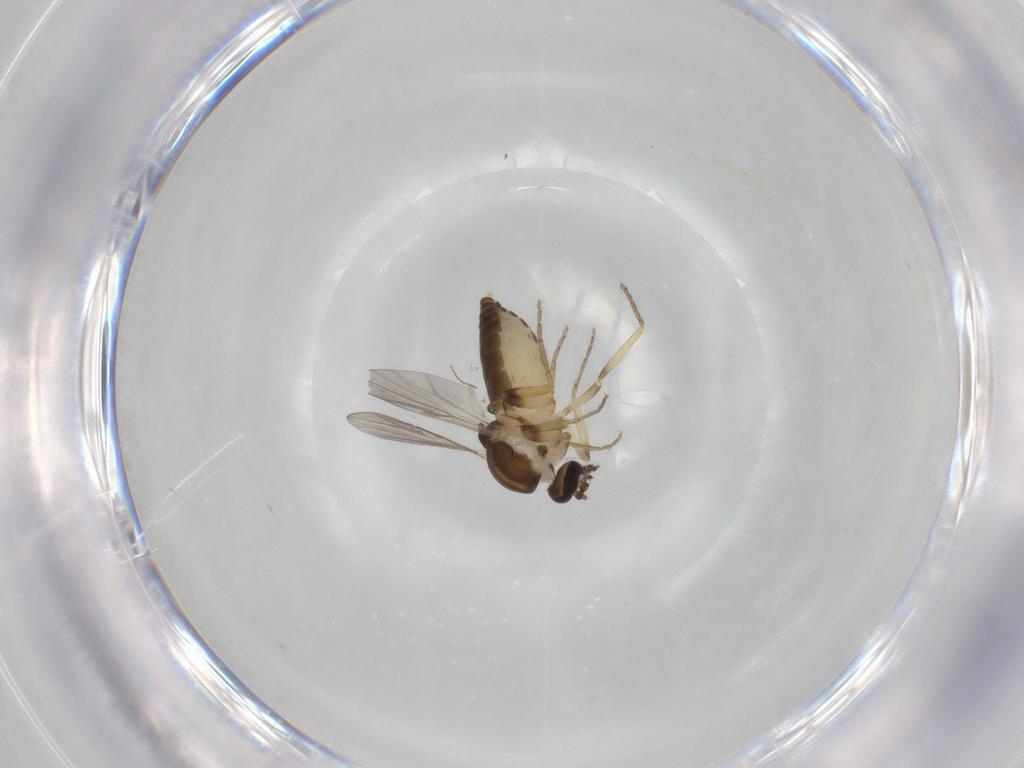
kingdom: Animalia
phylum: Arthropoda
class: Insecta
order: Diptera
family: Ceratopogonidae
